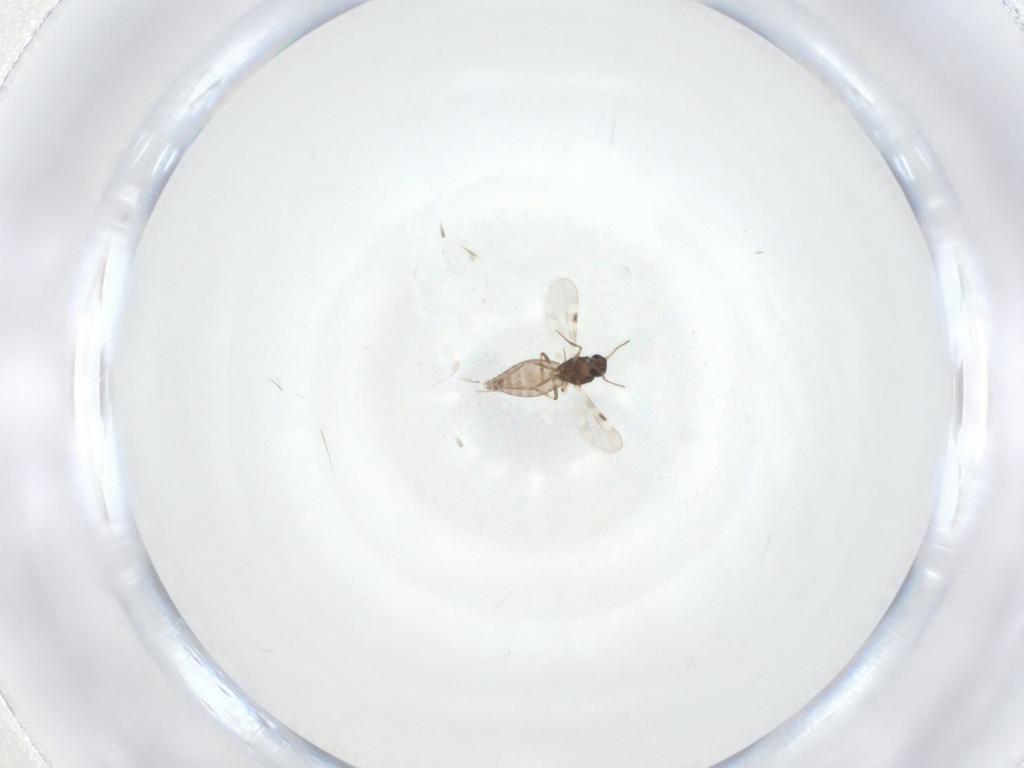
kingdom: Animalia
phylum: Arthropoda
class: Insecta
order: Diptera
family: Cecidomyiidae
